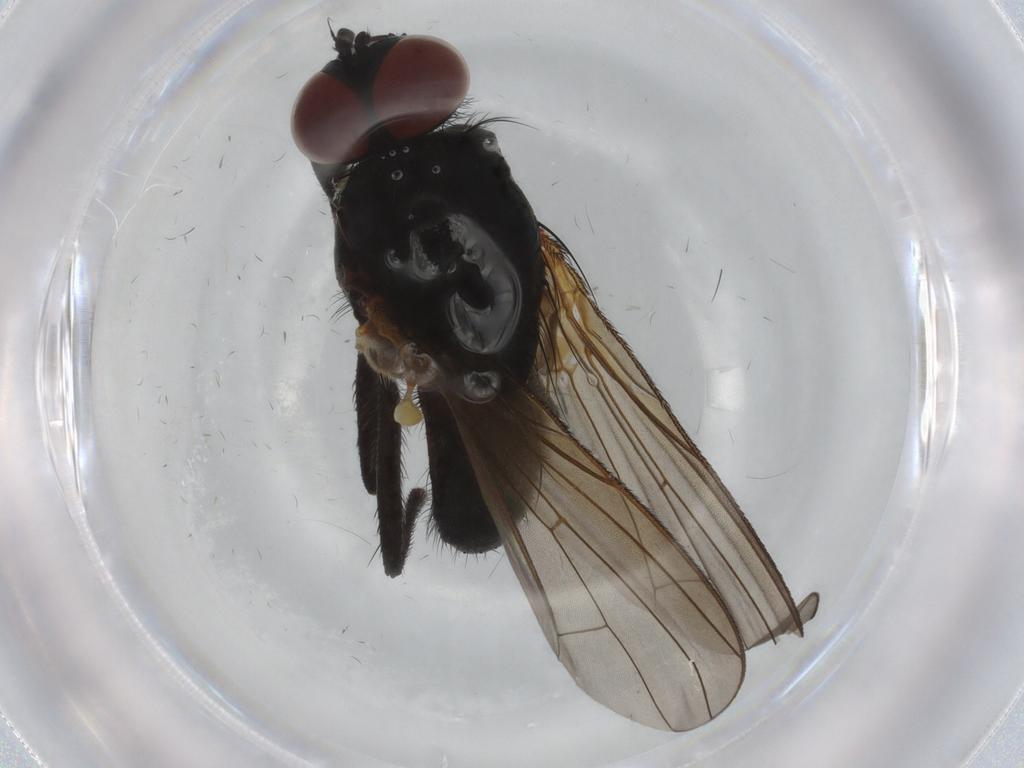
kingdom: Animalia
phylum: Arthropoda
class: Insecta
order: Diptera
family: Anthomyiidae
